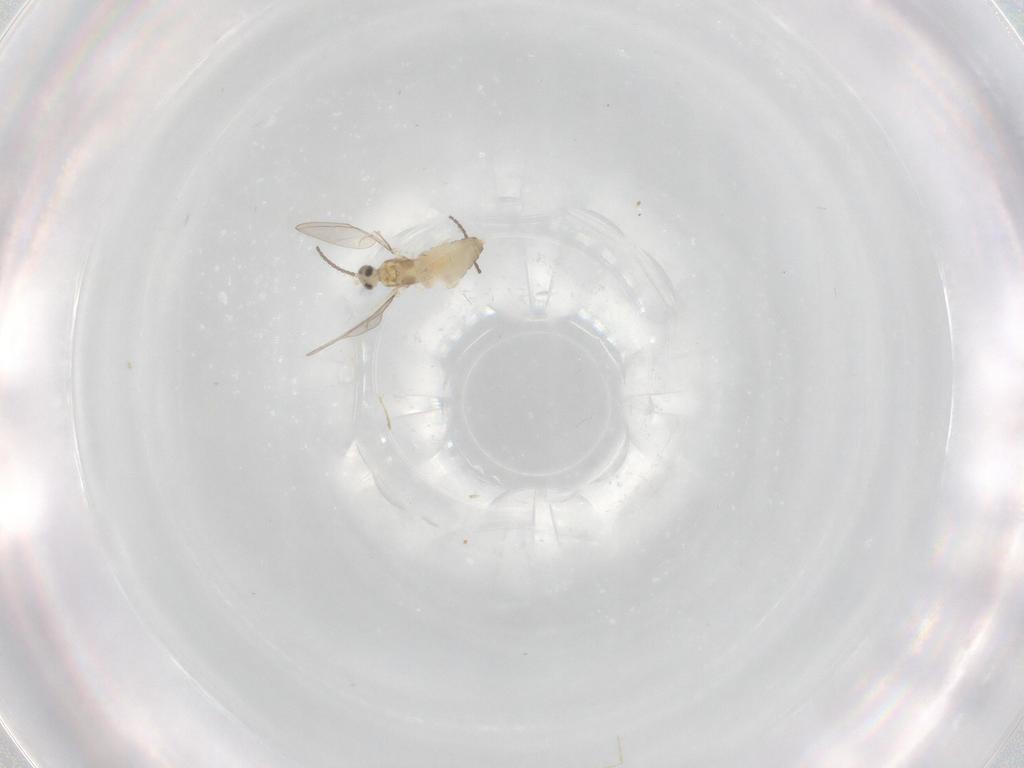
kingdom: Animalia
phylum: Arthropoda
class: Insecta
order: Diptera
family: Cecidomyiidae
